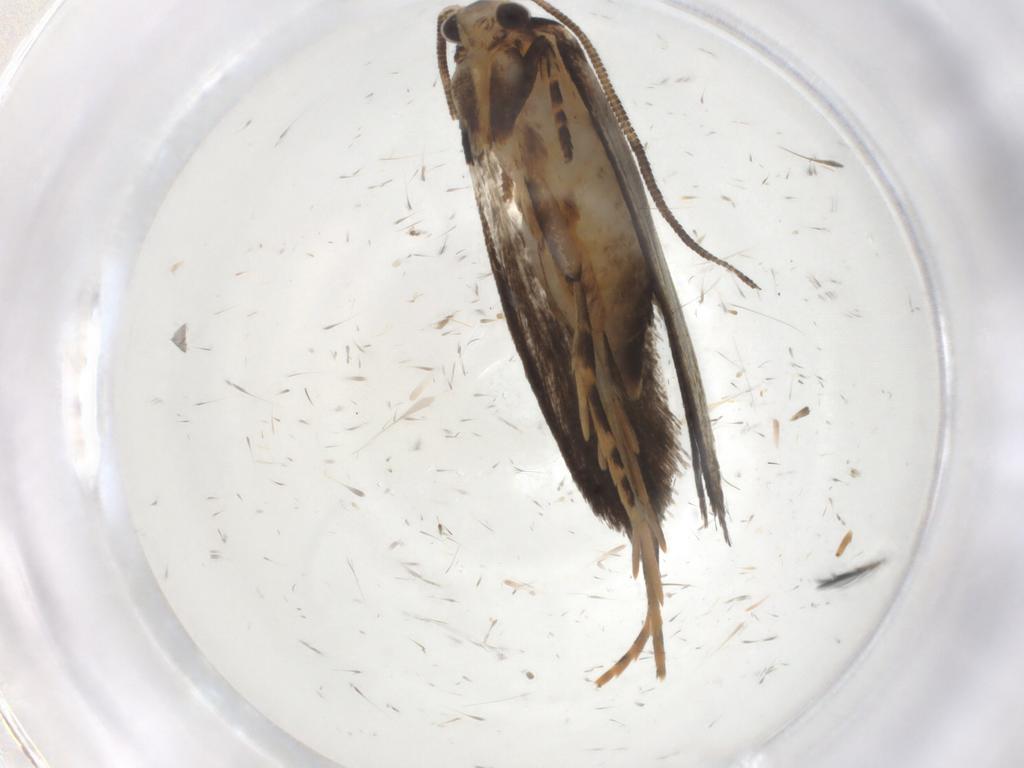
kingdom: Animalia
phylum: Arthropoda
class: Insecta
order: Lepidoptera
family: Tineidae
